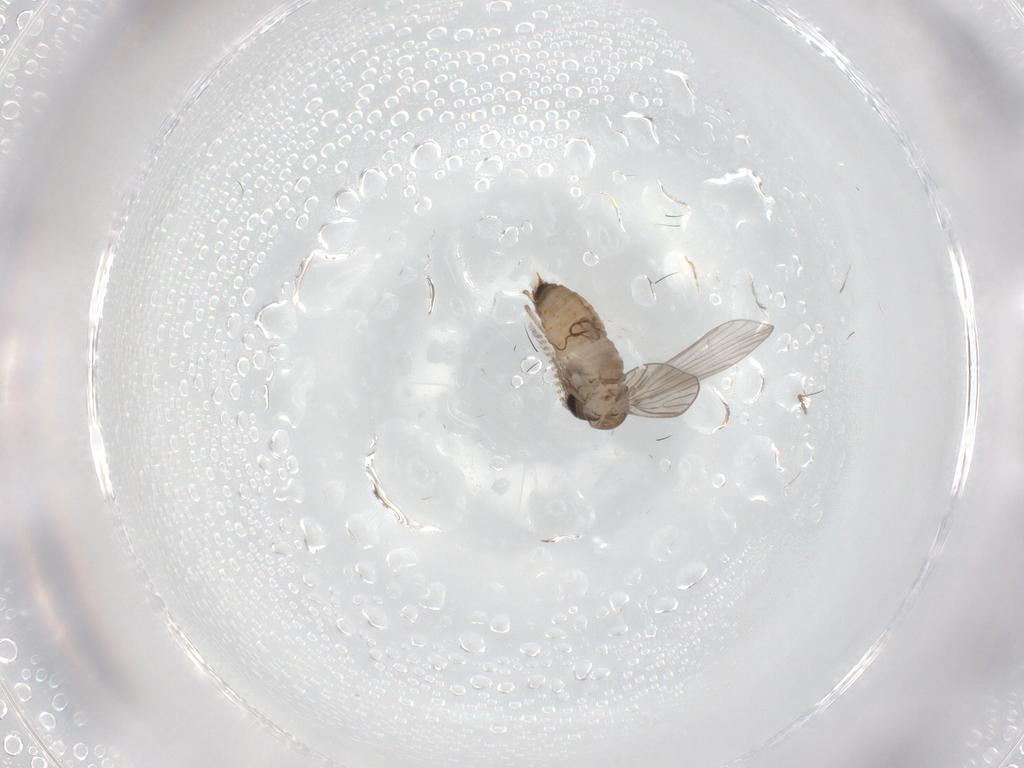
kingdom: Animalia
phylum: Arthropoda
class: Insecta
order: Diptera
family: Psychodidae
